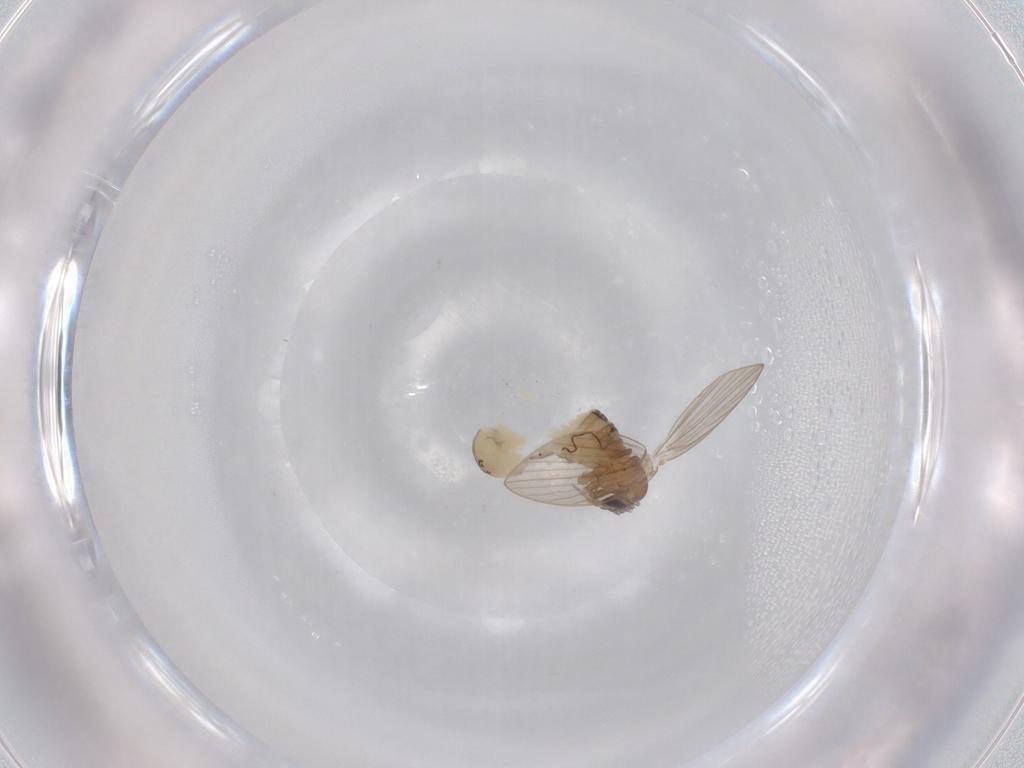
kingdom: Animalia
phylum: Arthropoda
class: Insecta
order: Diptera
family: Psychodidae
